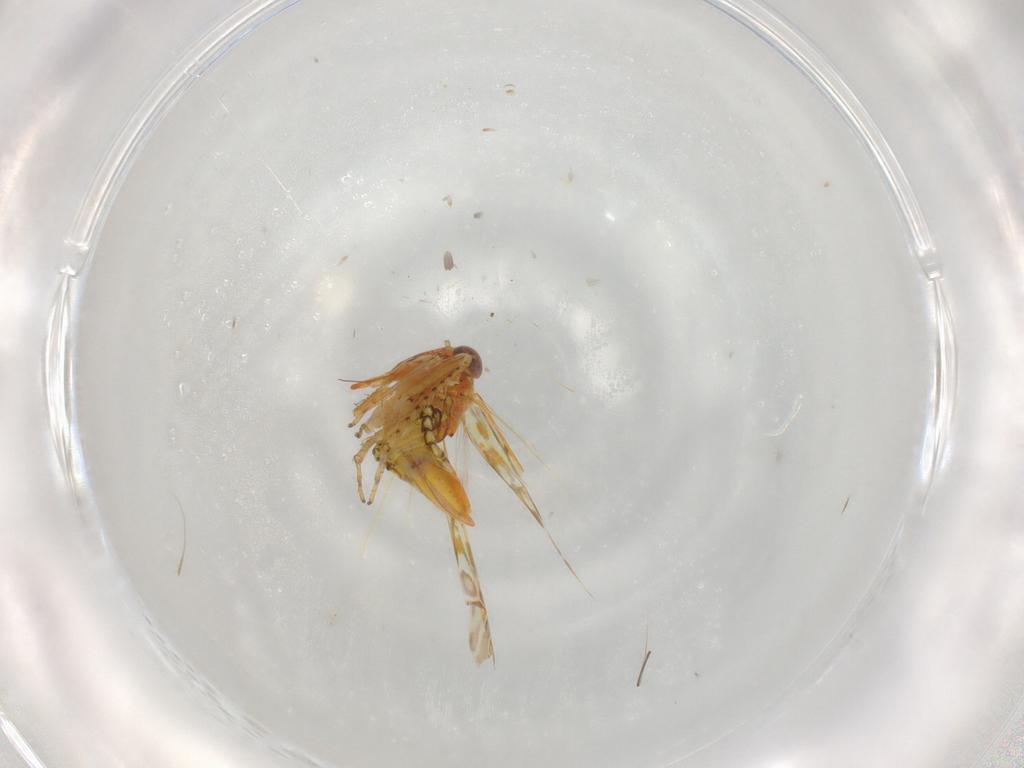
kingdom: Animalia
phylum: Arthropoda
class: Insecta
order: Hemiptera
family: Cicadellidae
